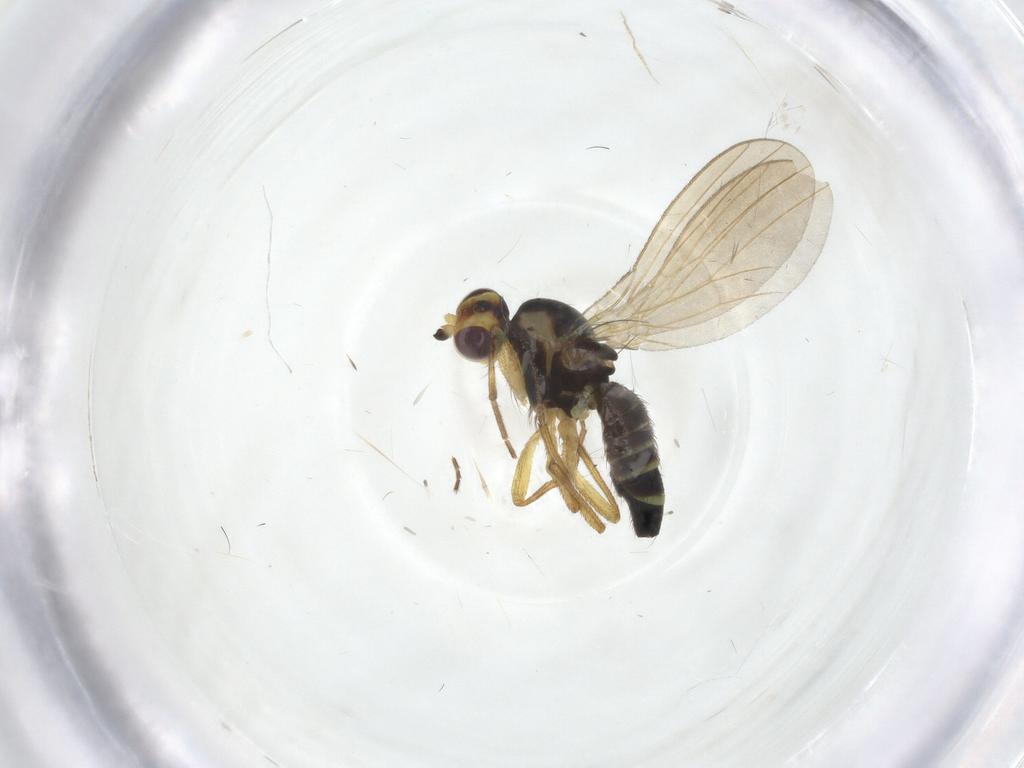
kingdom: Animalia
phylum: Arthropoda
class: Insecta
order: Diptera
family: Agromyzidae
